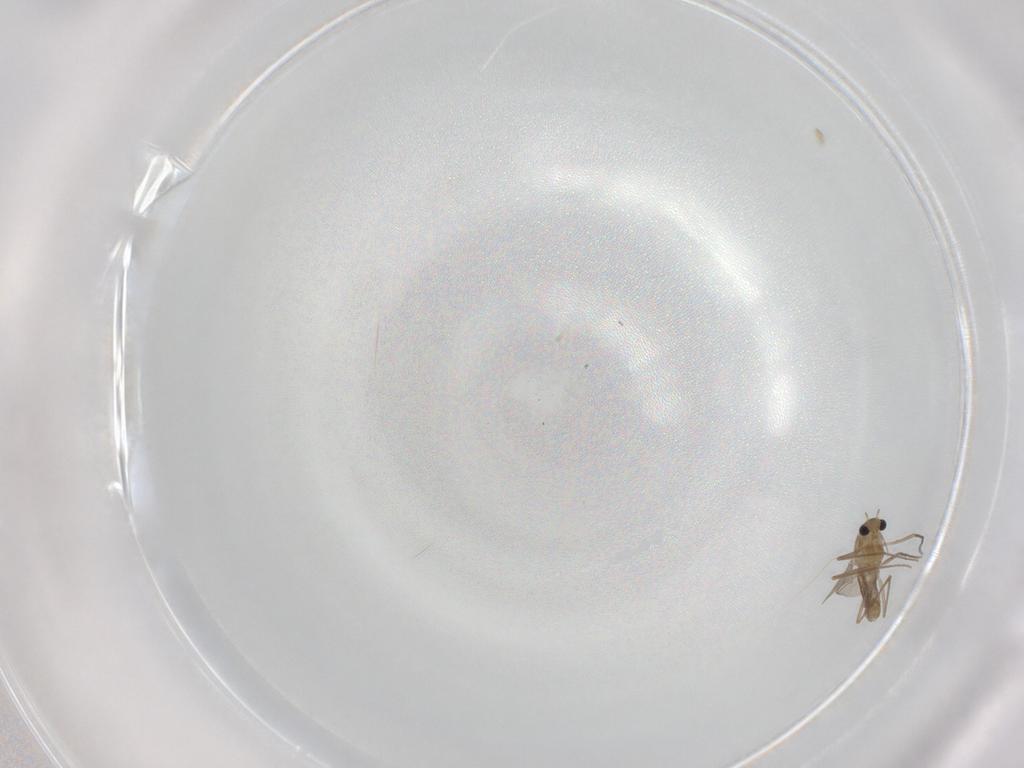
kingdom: Animalia
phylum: Arthropoda
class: Insecta
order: Diptera
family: Chironomidae
